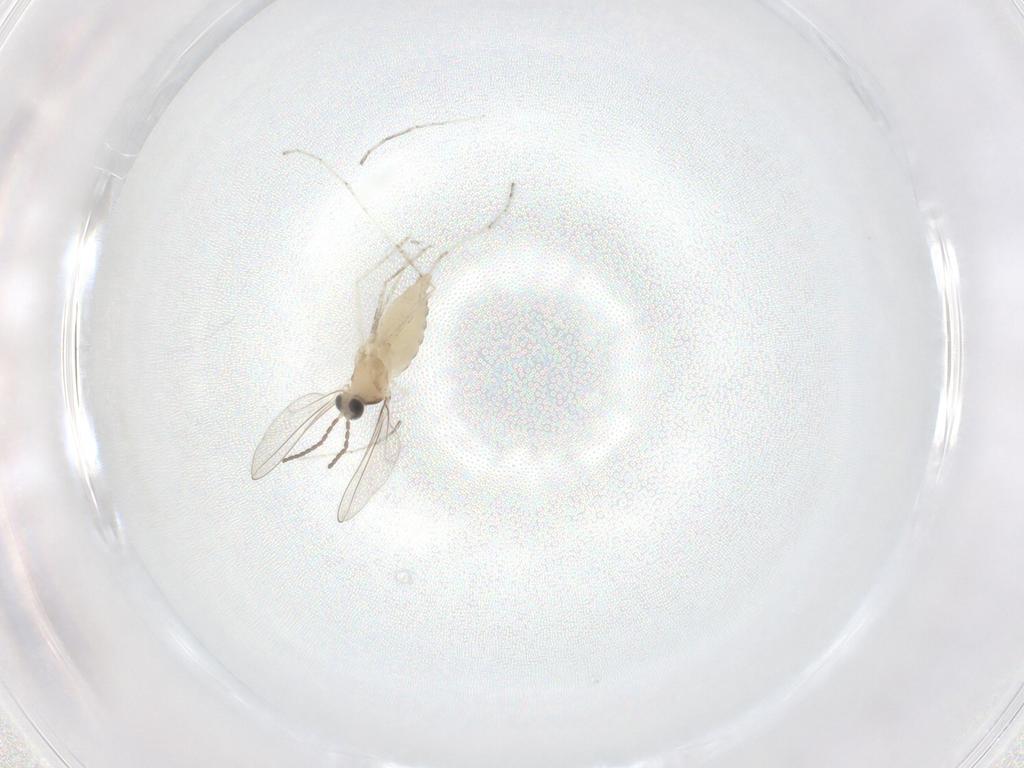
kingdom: Animalia
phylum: Arthropoda
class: Insecta
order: Diptera
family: Cecidomyiidae
